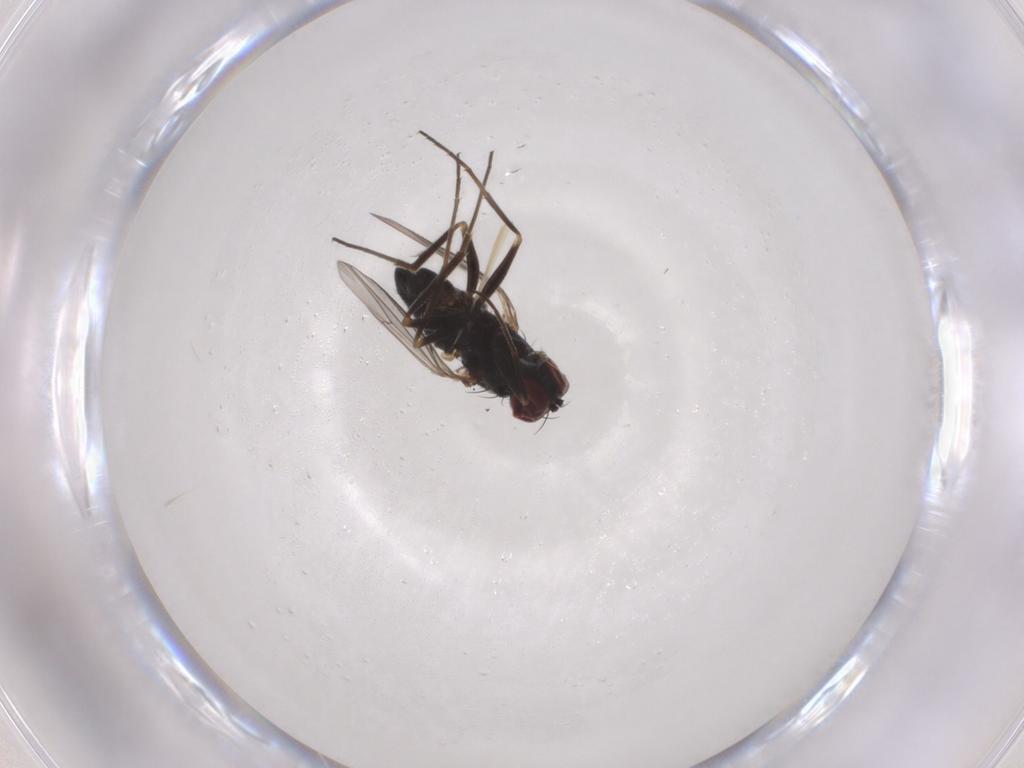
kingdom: Animalia
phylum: Arthropoda
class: Insecta
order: Diptera
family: Dolichopodidae
